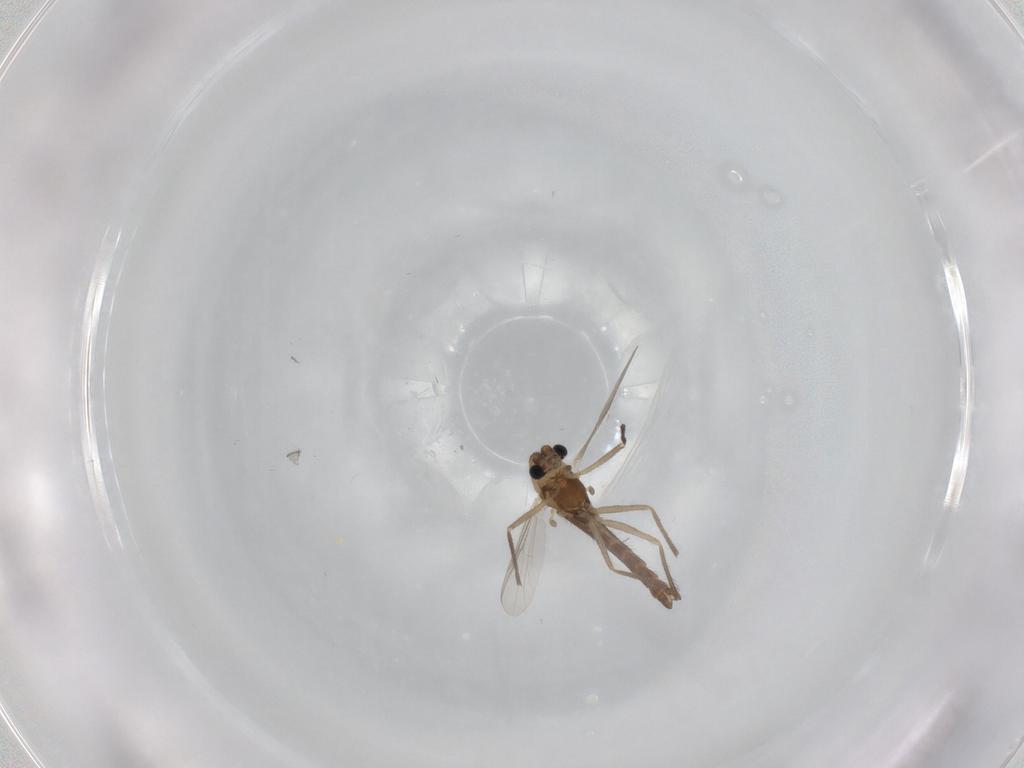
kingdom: Animalia
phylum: Arthropoda
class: Insecta
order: Diptera
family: Chironomidae
